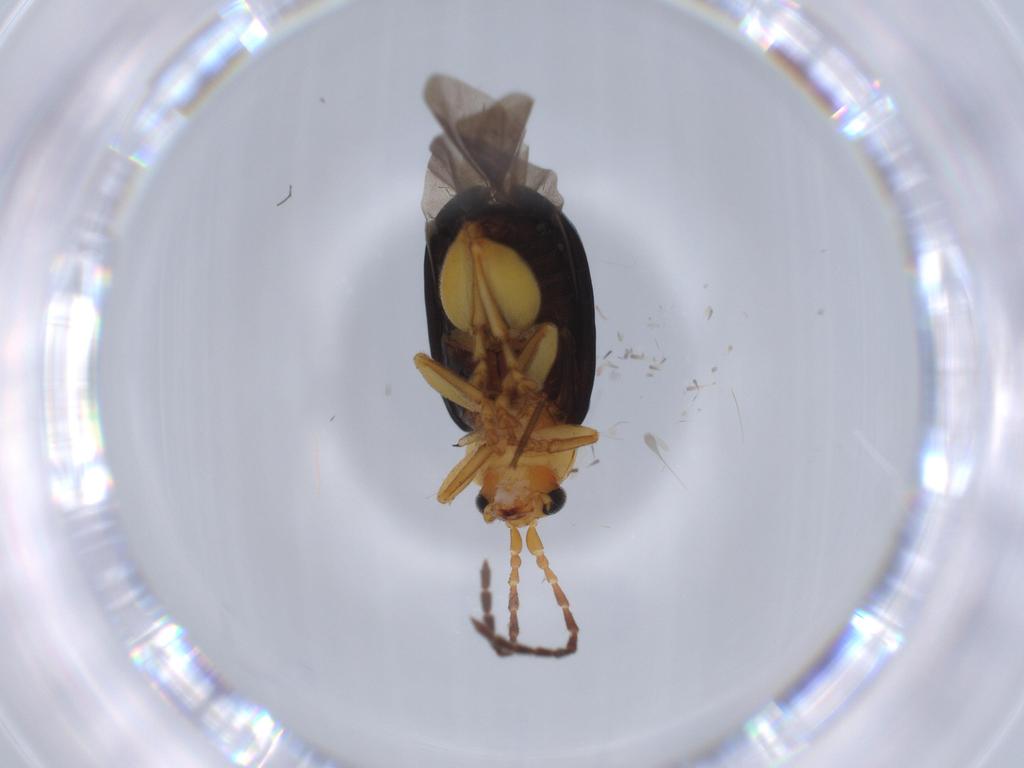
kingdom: Animalia
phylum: Arthropoda
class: Insecta
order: Coleoptera
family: Chrysomelidae
